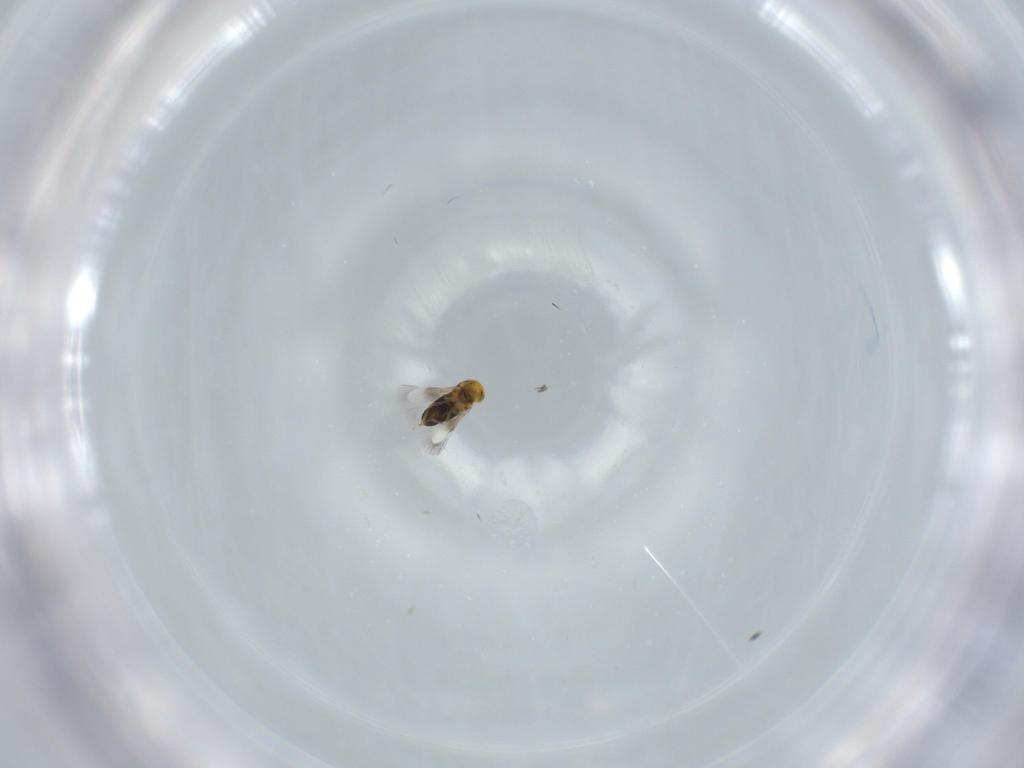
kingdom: Animalia
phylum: Arthropoda
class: Insecta
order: Hymenoptera
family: Signiphoridae
